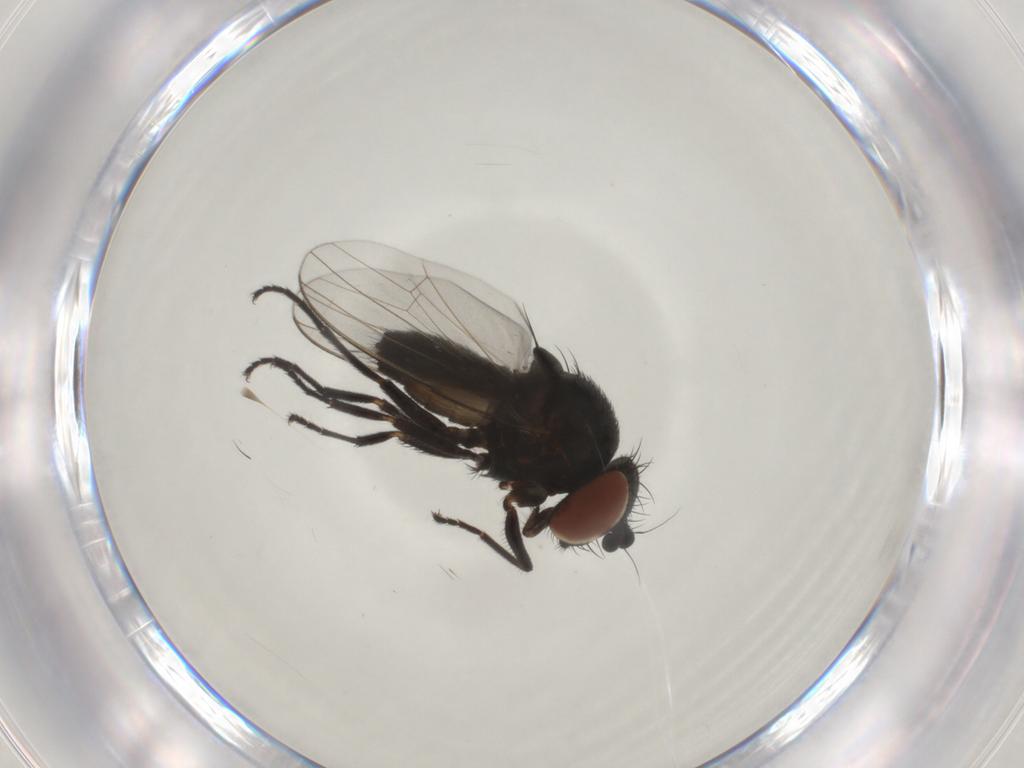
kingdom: Animalia
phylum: Arthropoda
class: Insecta
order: Diptera
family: Milichiidae
